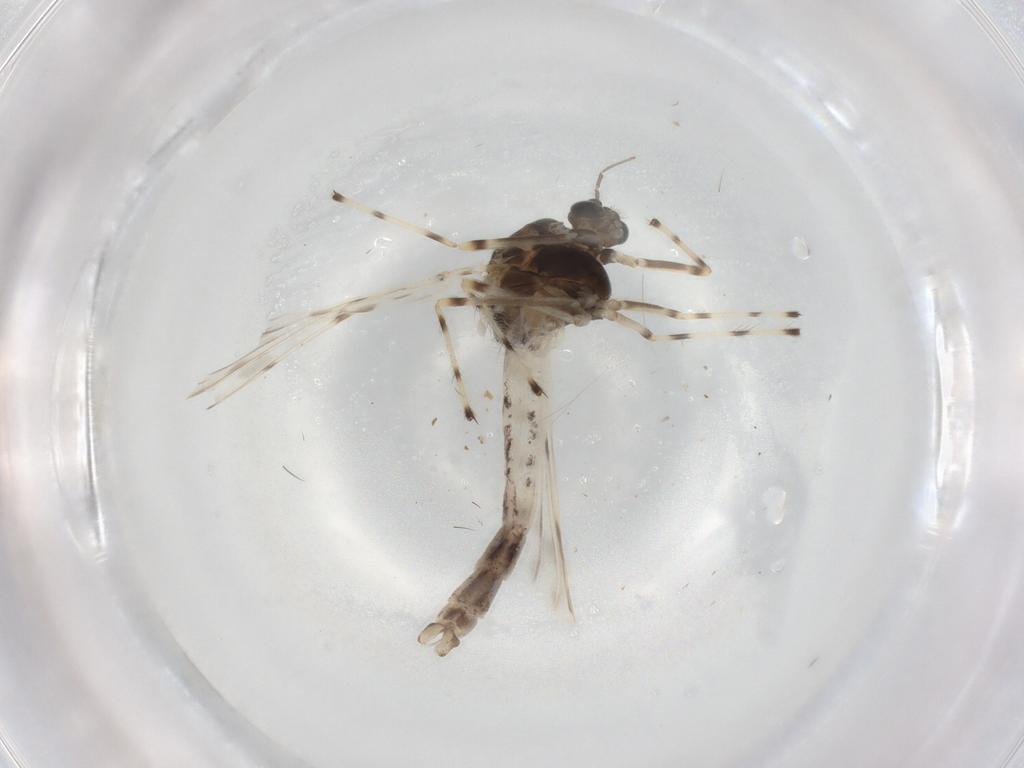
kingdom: Animalia
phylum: Arthropoda
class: Insecta
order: Diptera
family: Chironomidae
